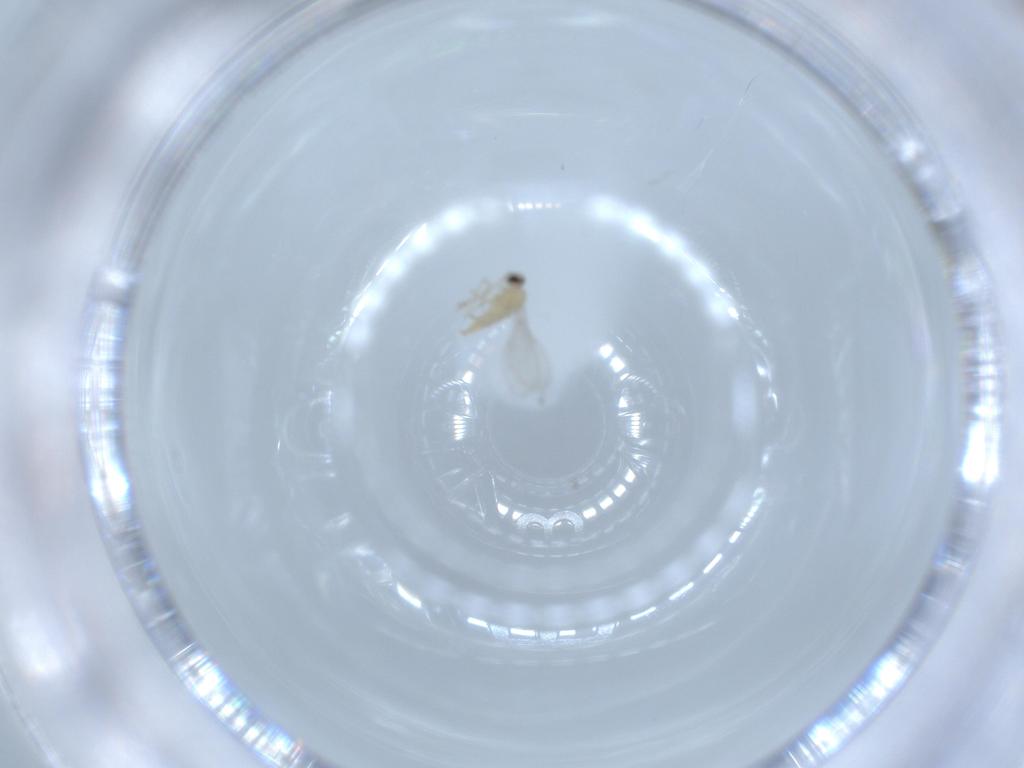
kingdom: Animalia
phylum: Arthropoda
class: Insecta
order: Diptera
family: Cecidomyiidae
